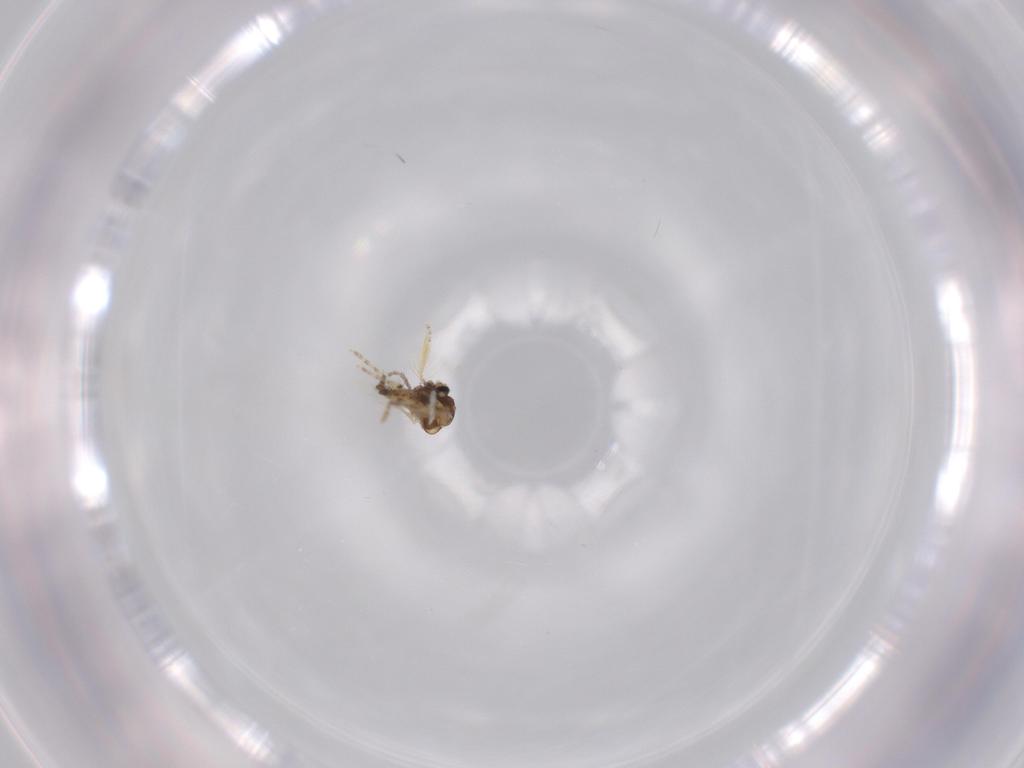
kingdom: Animalia
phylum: Arthropoda
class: Insecta
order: Diptera
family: Ceratopogonidae
